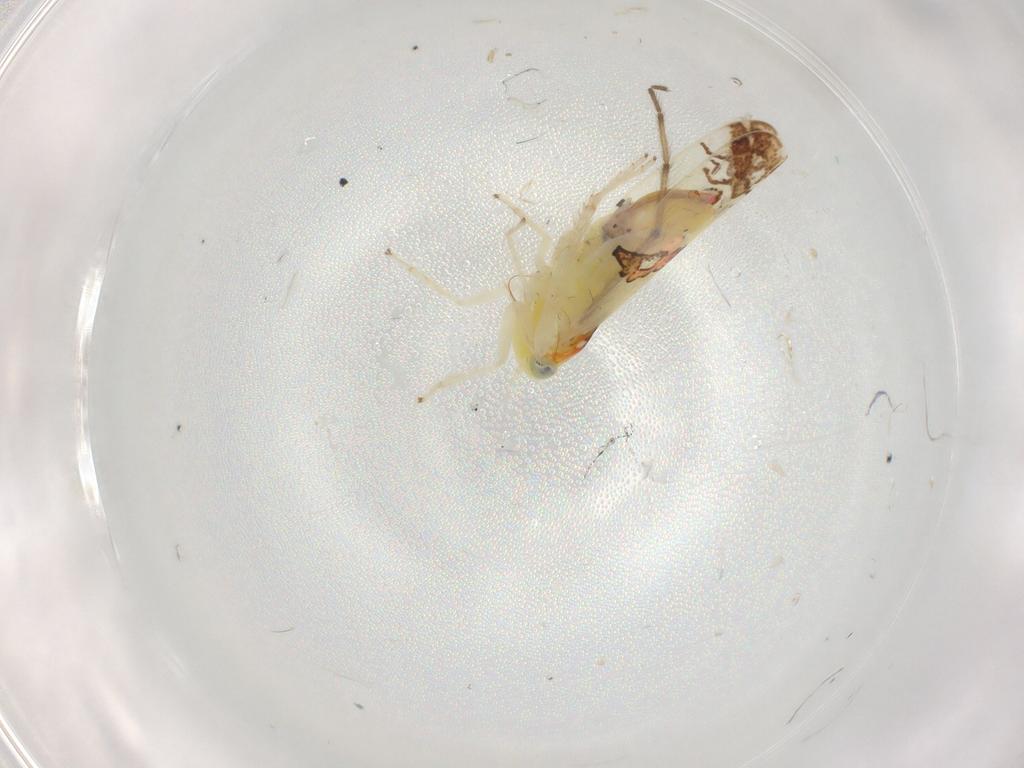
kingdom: Animalia
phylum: Arthropoda
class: Insecta
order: Hemiptera
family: Cicadellidae
